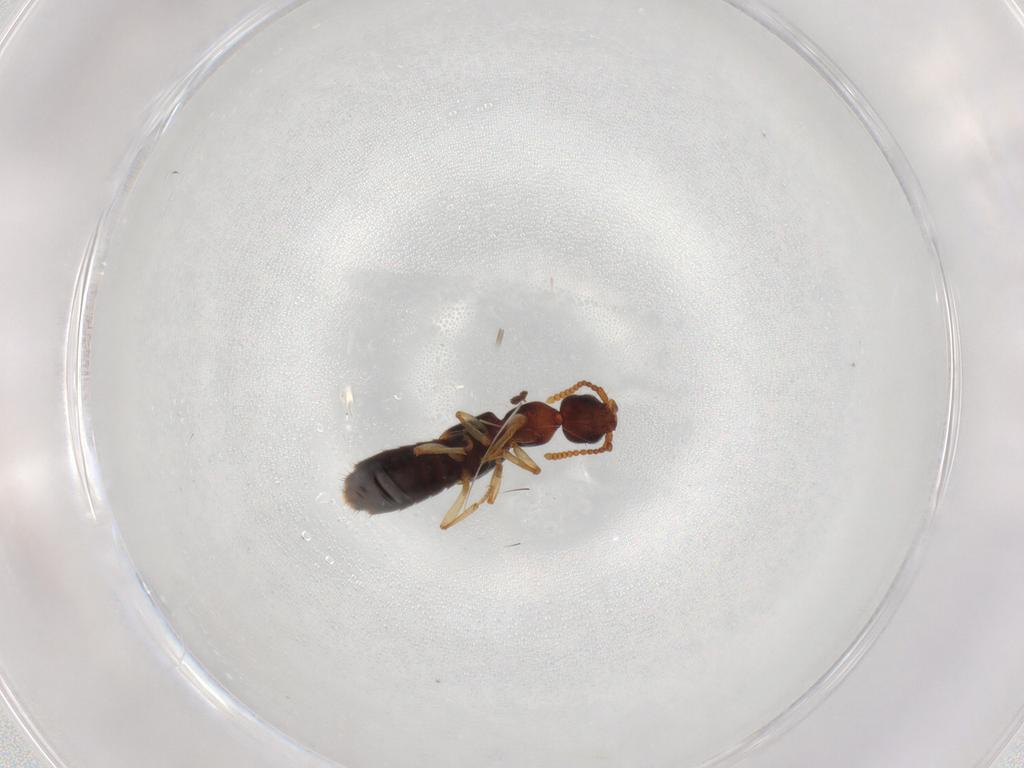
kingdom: Animalia
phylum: Arthropoda
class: Insecta
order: Coleoptera
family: Staphylinidae
